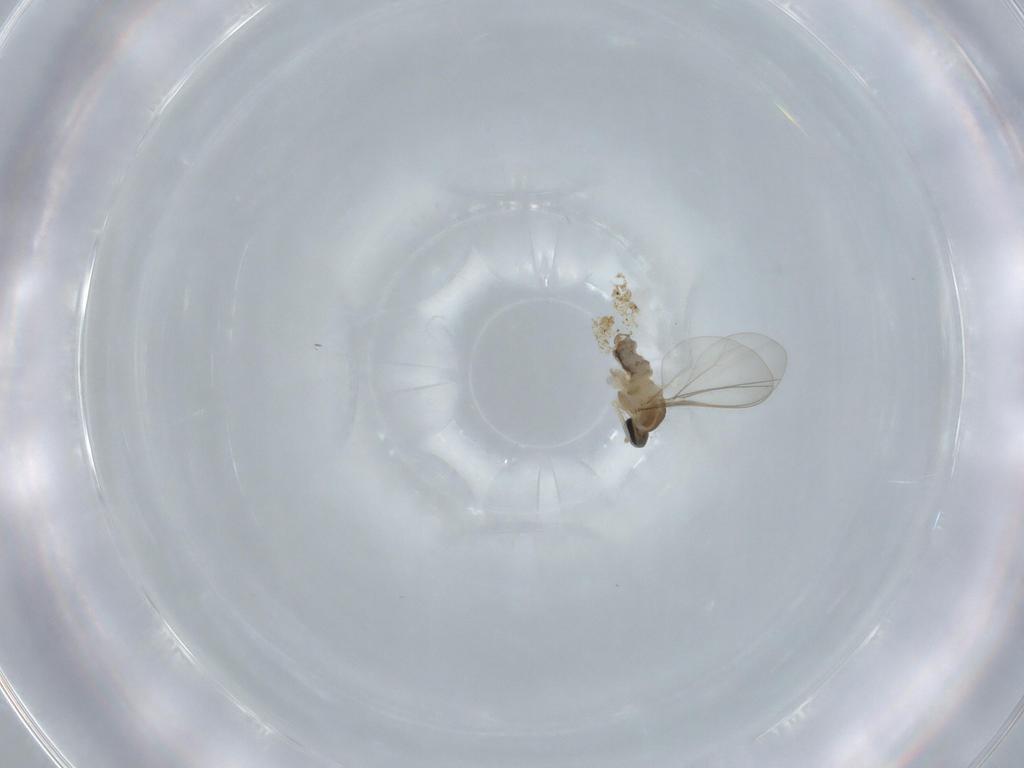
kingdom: Animalia
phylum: Arthropoda
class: Insecta
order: Diptera
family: Cecidomyiidae
